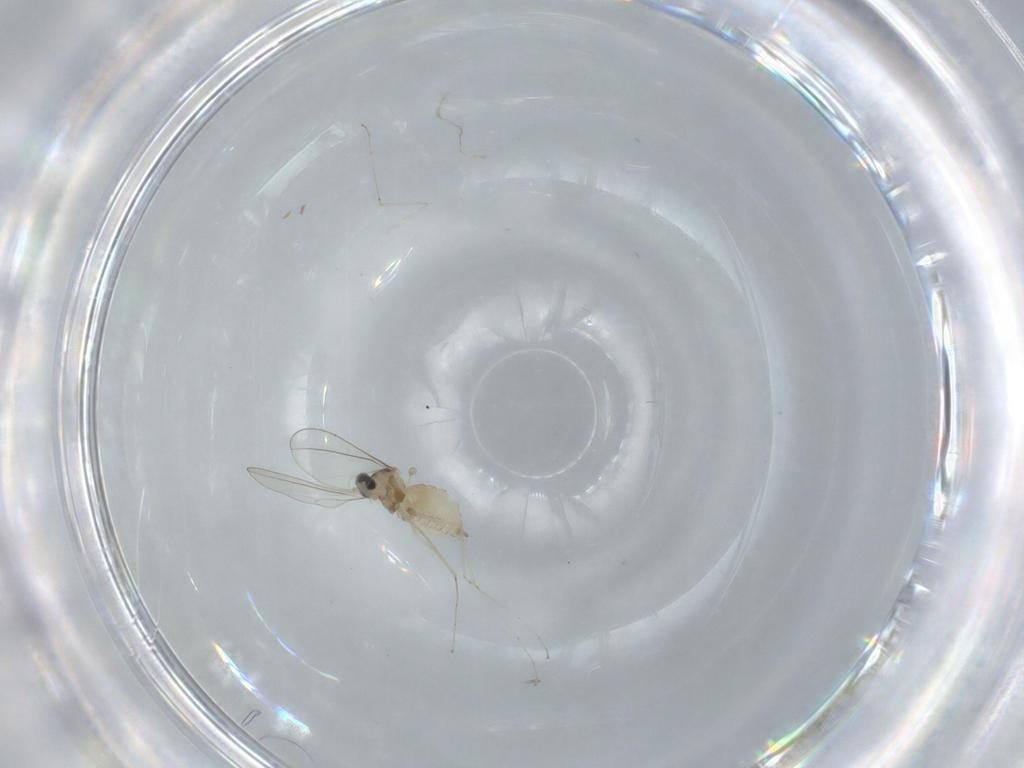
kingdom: Animalia
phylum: Arthropoda
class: Insecta
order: Diptera
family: Cecidomyiidae
